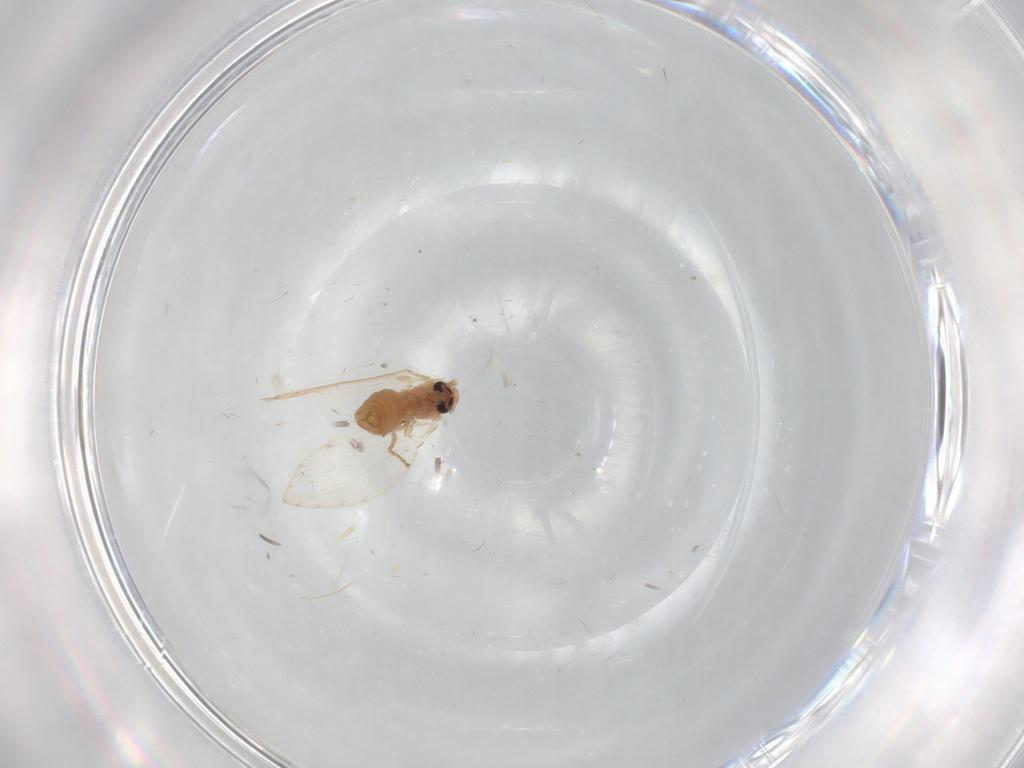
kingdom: Animalia
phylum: Arthropoda
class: Insecta
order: Diptera
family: Psychodidae
